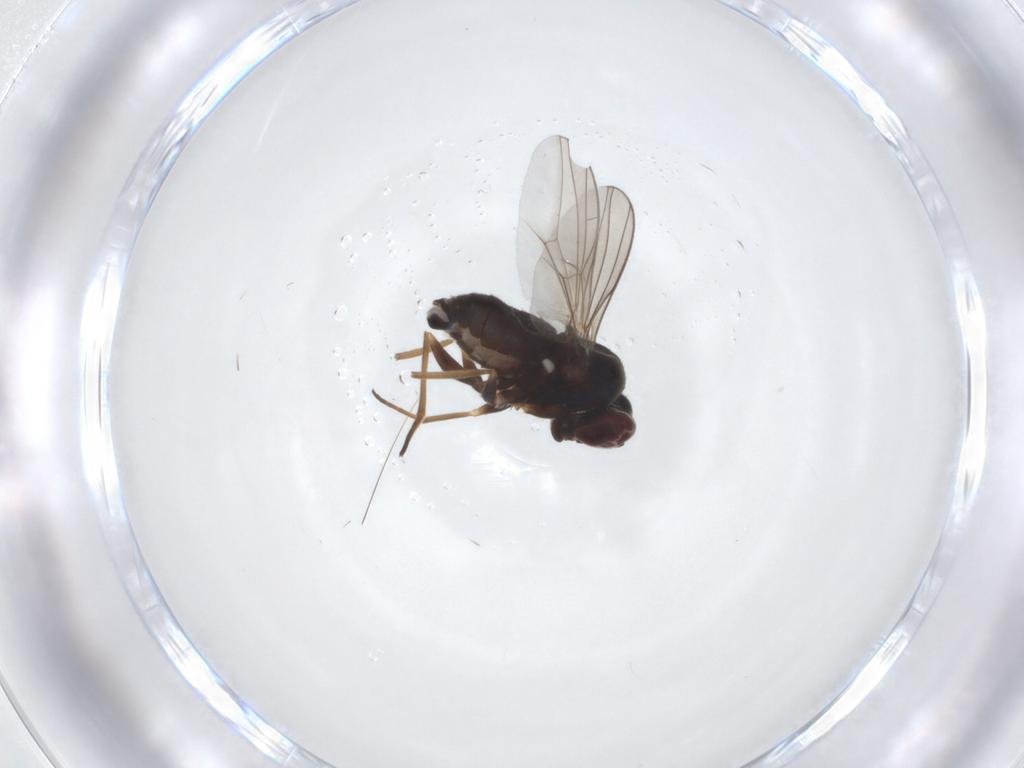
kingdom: Animalia
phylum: Arthropoda
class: Insecta
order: Diptera
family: Dolichopodidae
